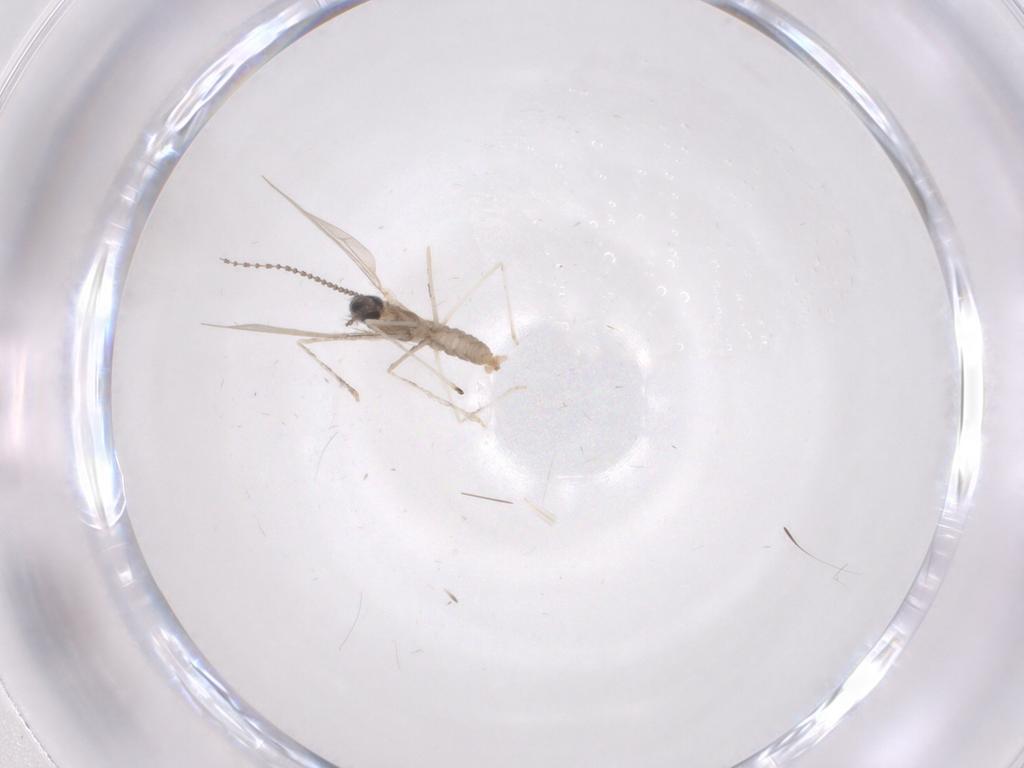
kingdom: Animalia
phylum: Arthropoda
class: Insecta
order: Diptera
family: Psychodidae
